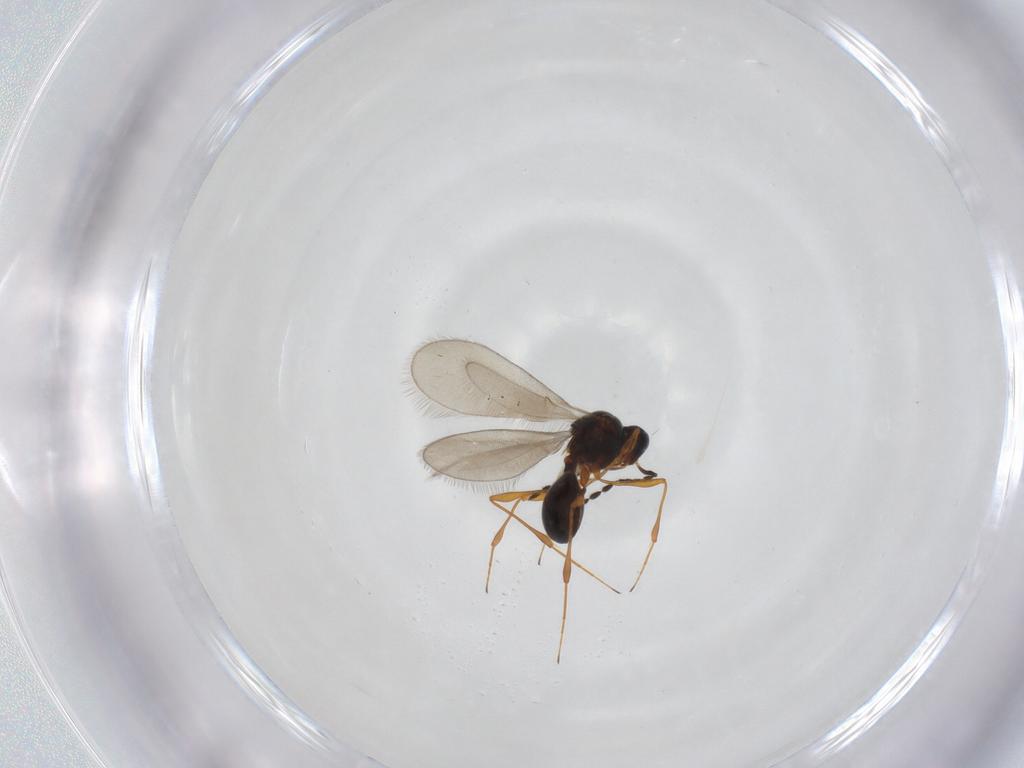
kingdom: Animalia
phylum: Arthropoda
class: Insecta
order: Hymenoptera
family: Platygastridae
